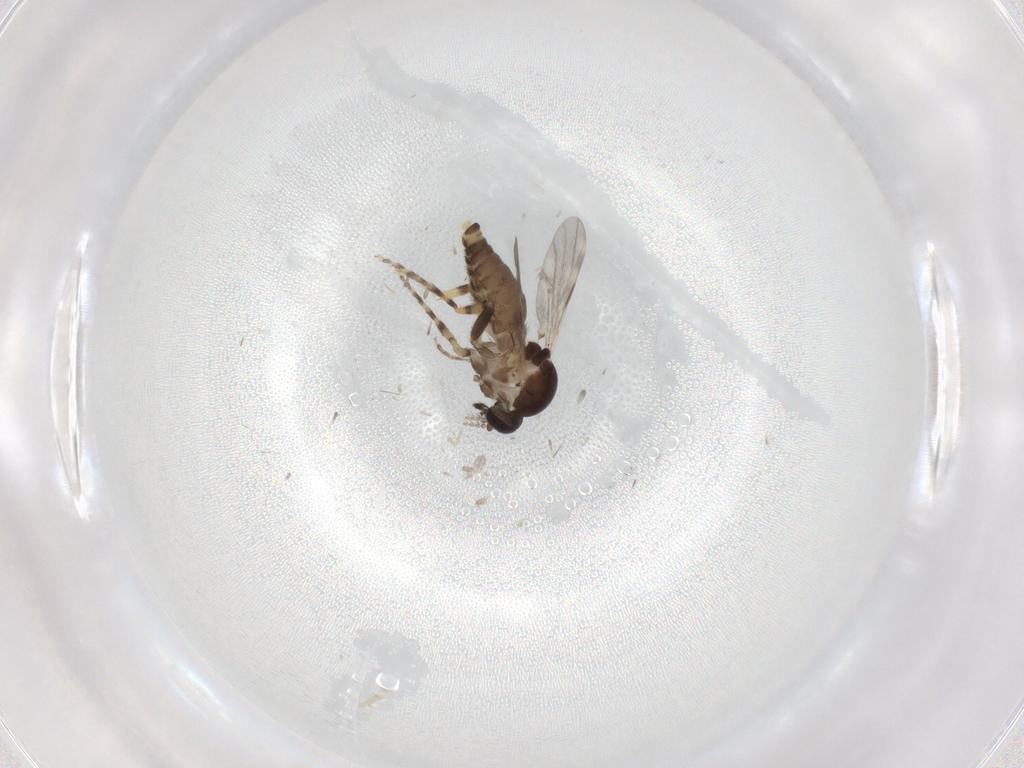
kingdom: Animalia
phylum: Arthropoda
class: Insecta
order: Diptera
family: Ceratopogonidae
